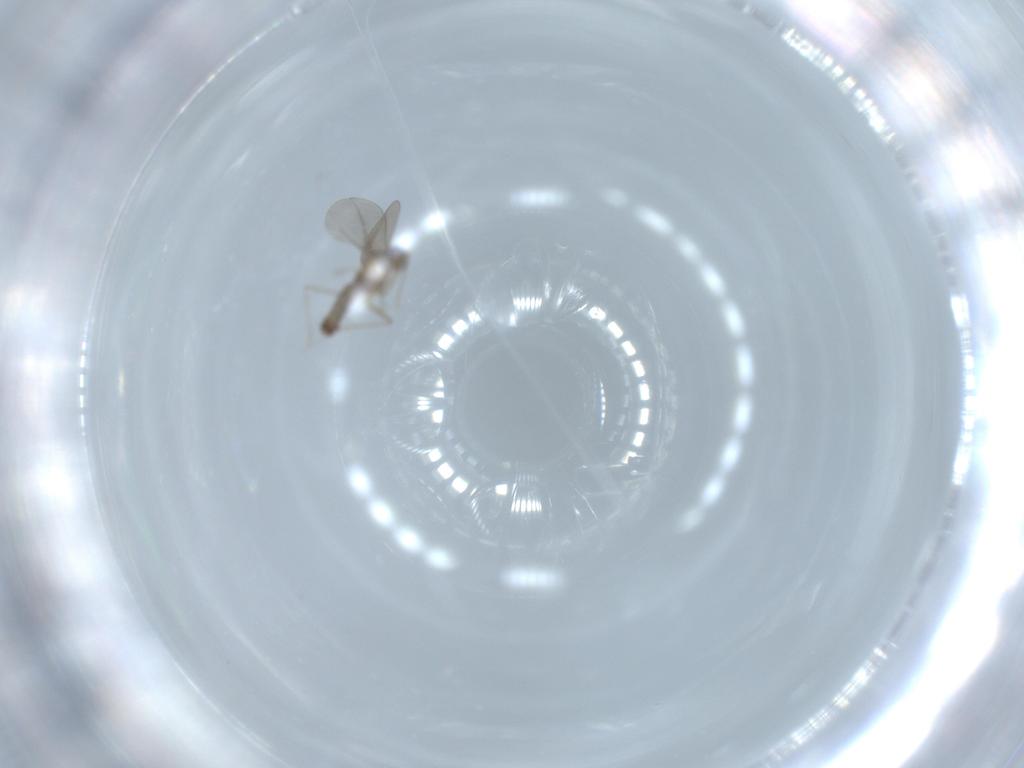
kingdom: Animalia
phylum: Arthropoda
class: Insecta
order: Diptera
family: Cecidomyiidae
